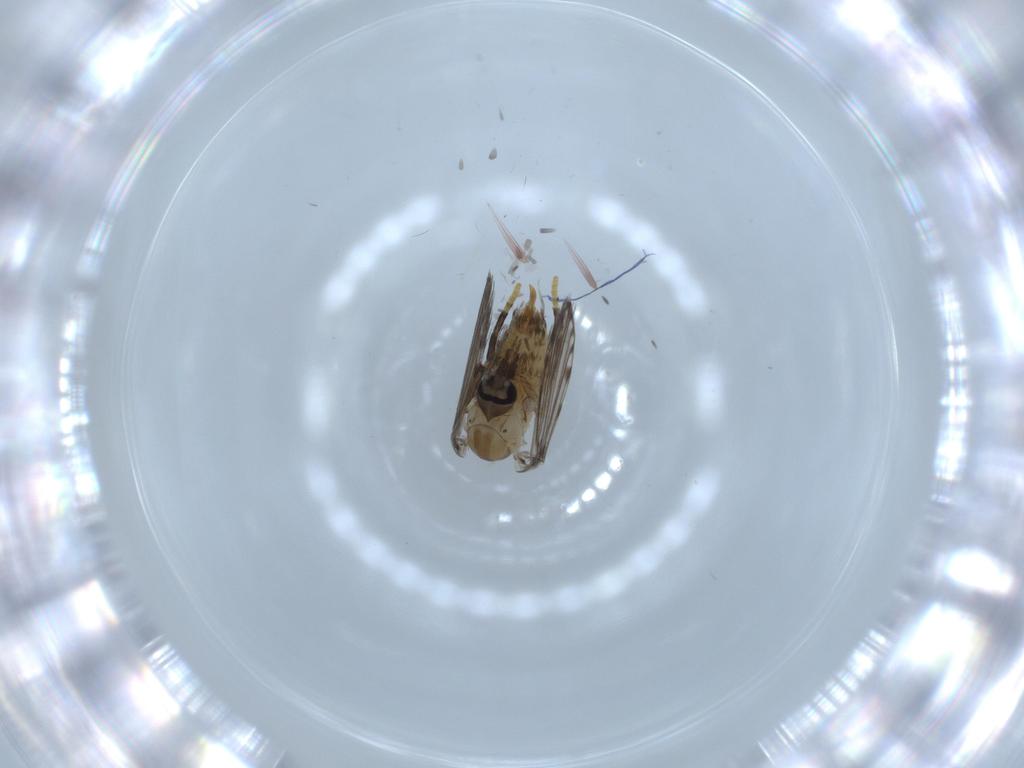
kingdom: Animalia
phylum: Arthropoda
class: Insecta
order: Diptera
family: Psychodidae
